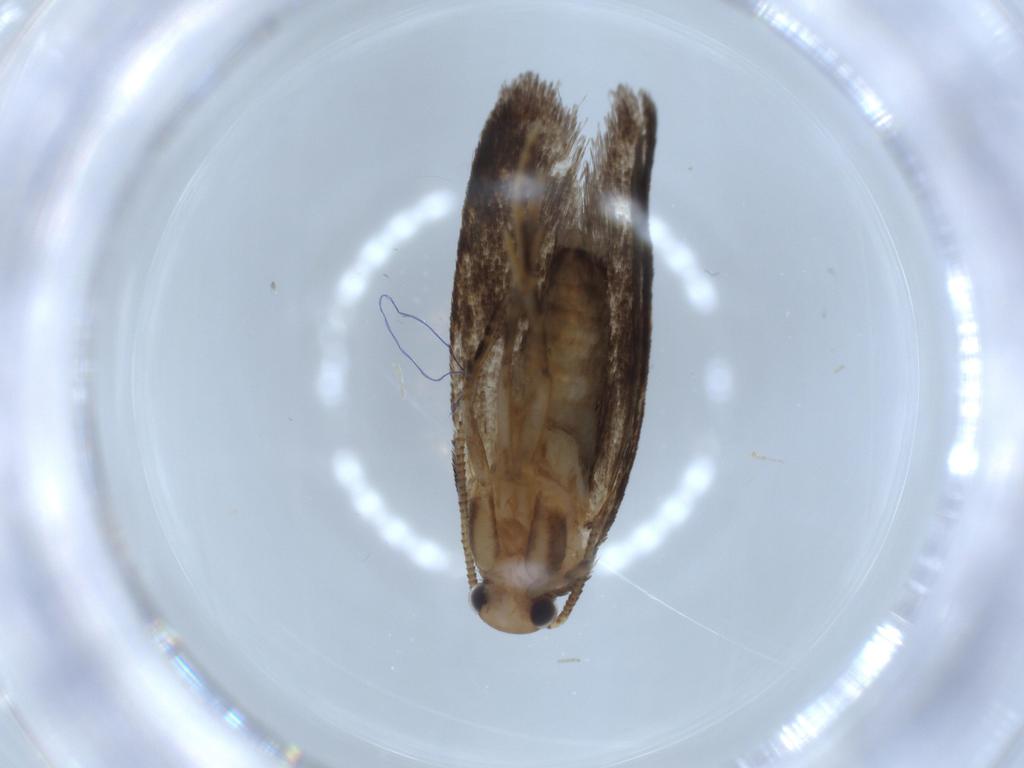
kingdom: Animalia
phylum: Arthropoda
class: Insecta
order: Lepidoptera
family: Tineidae
